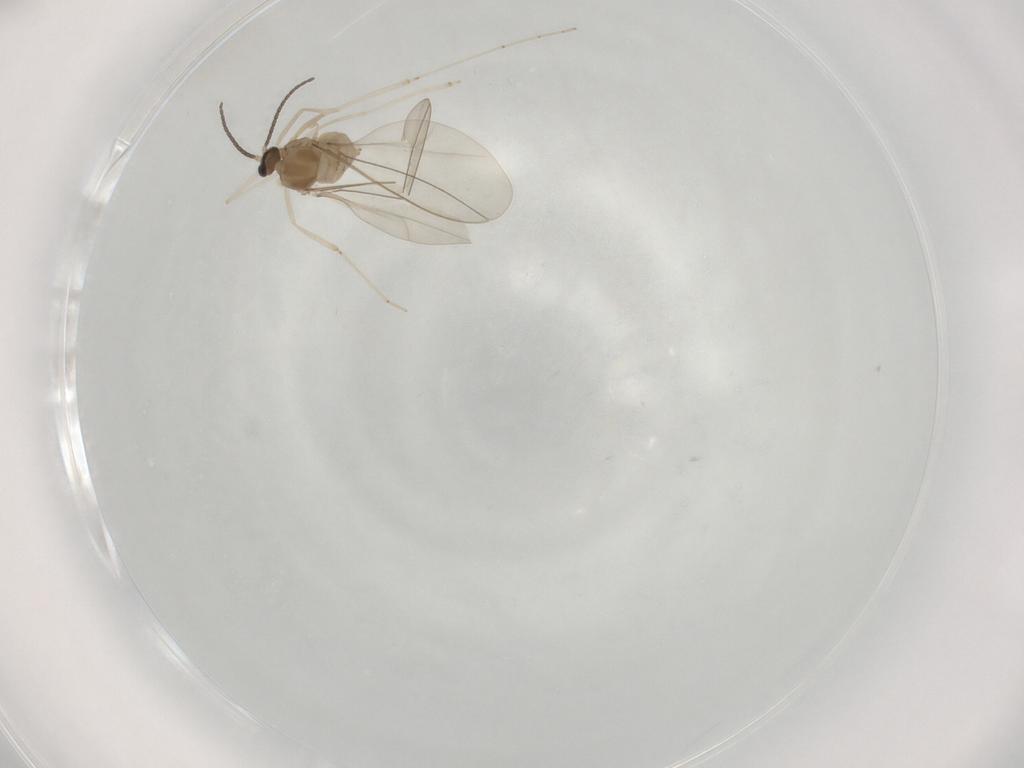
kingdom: Animalia
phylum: Arthropoda
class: Insecta
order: Diptera
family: Cecidomyiidae
